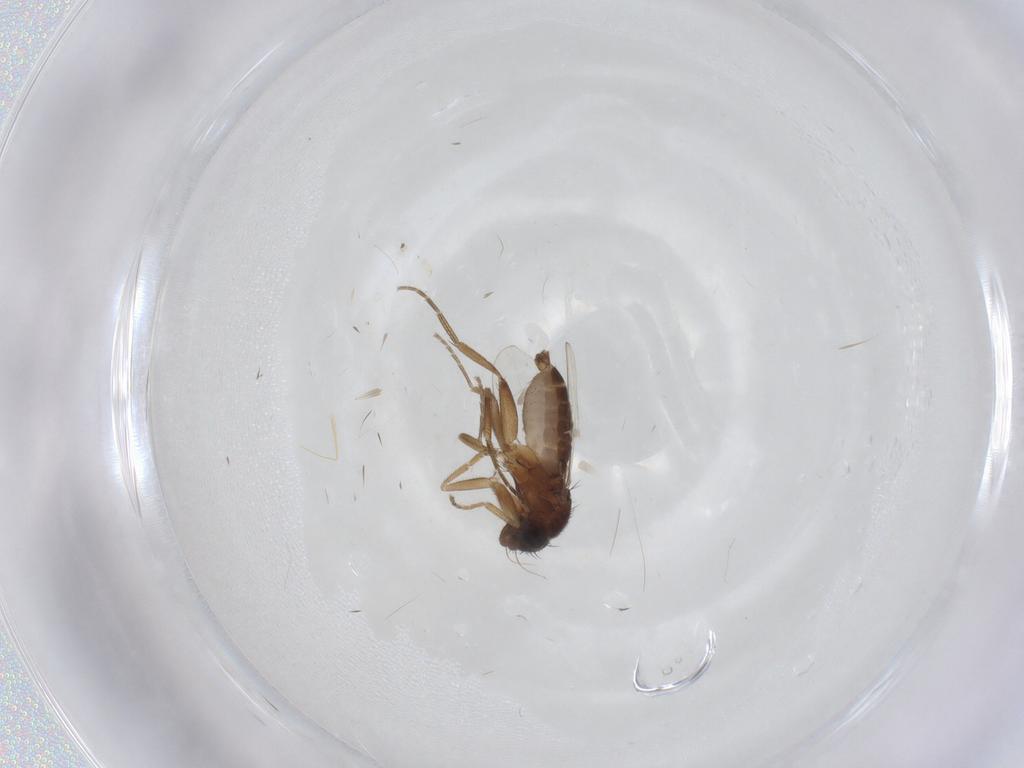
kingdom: Animalia
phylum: Arthropoda
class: Insecta
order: Diptera
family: Phoridae
